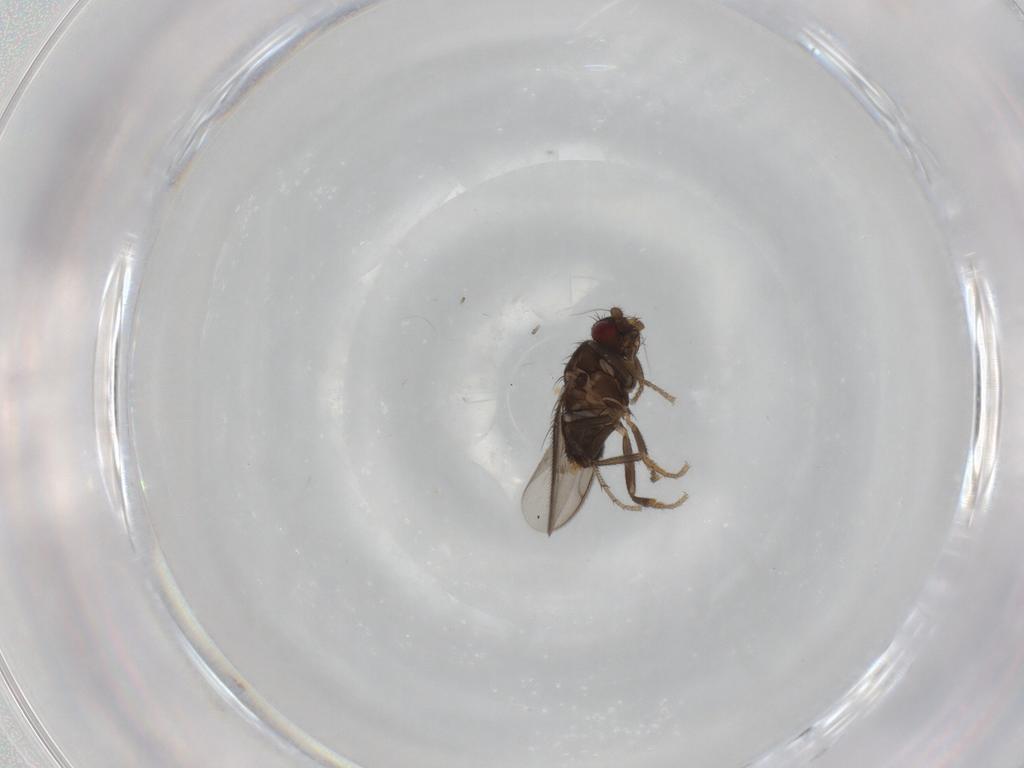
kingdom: Animalia
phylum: Arthropoda
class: Insecta
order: Diptera
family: Sphaeroceridae
